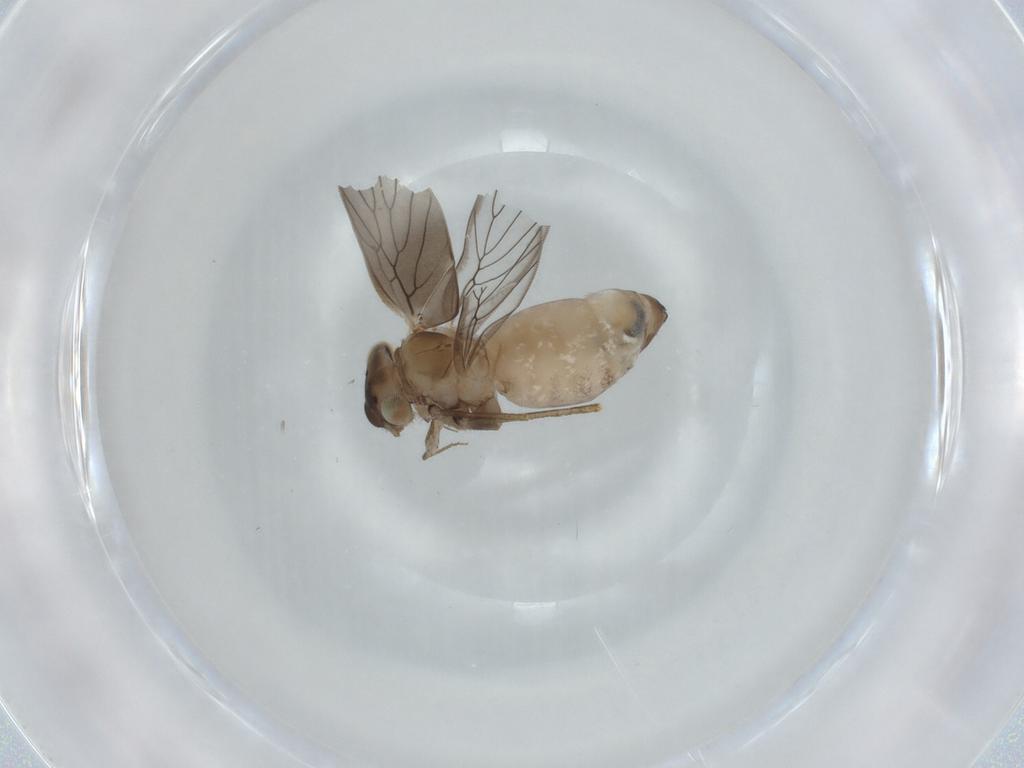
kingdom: Animalia
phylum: Arthropoda
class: Insecta
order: Psocodea
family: Lepidopsocidae
